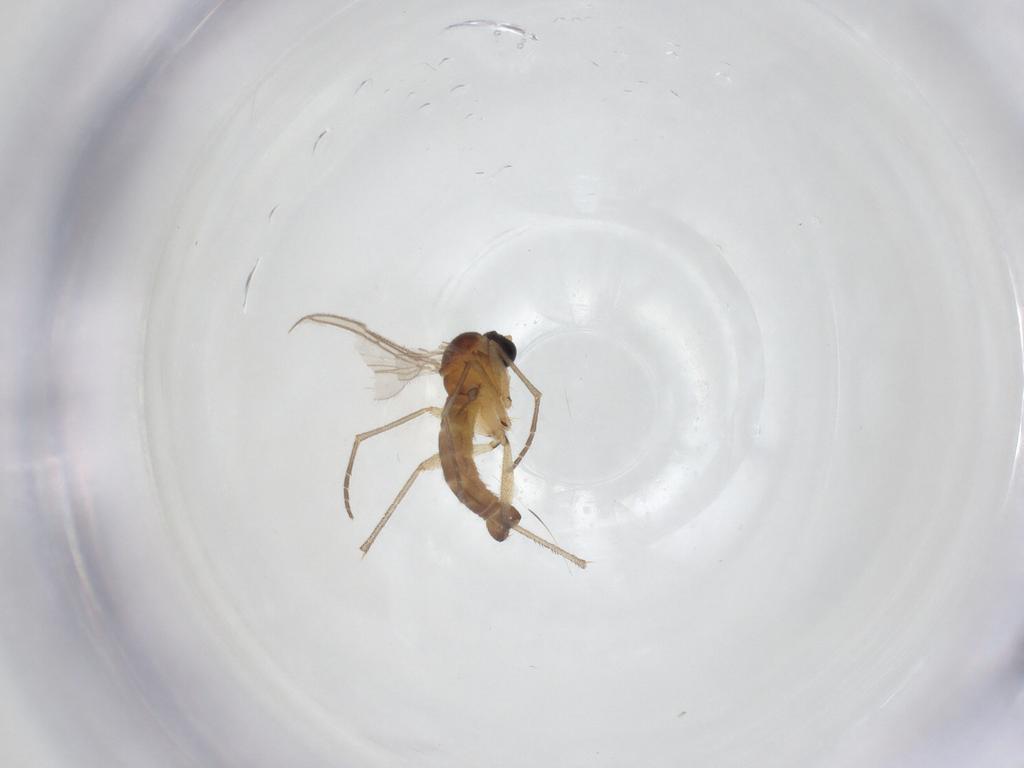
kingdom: Animalia
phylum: Arthropoda
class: Insecta
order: Diptera
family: Sciaridae
